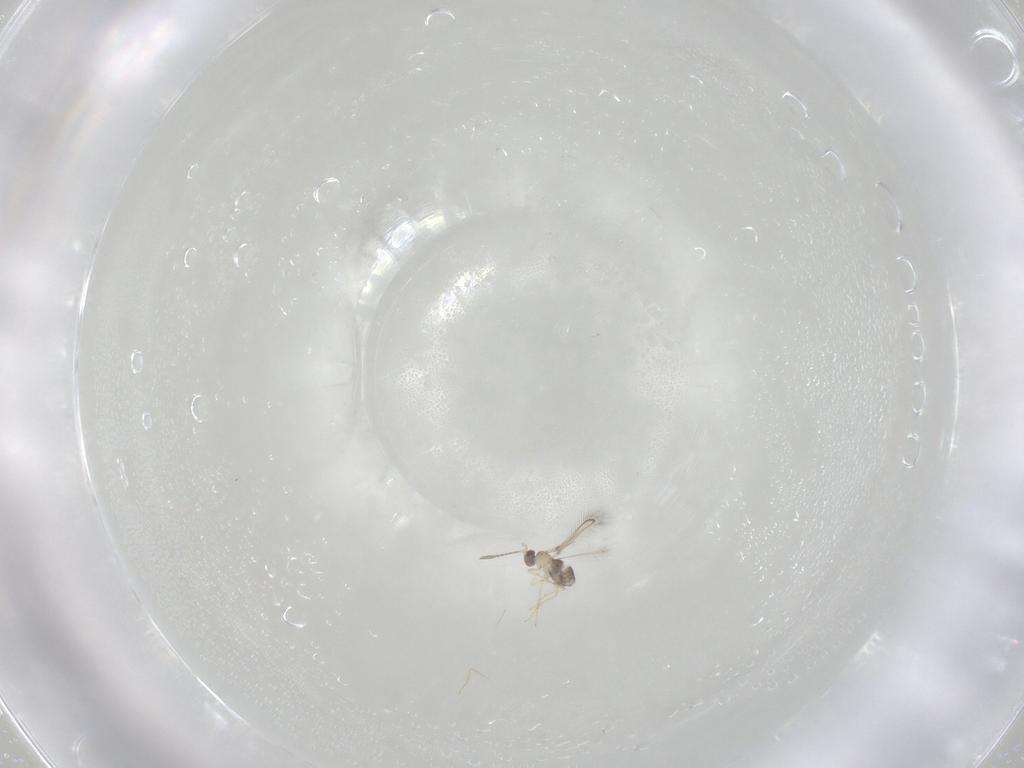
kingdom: Animalia
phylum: Arthropoda
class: Insecta
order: Hymenoptera
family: Mymaridae
